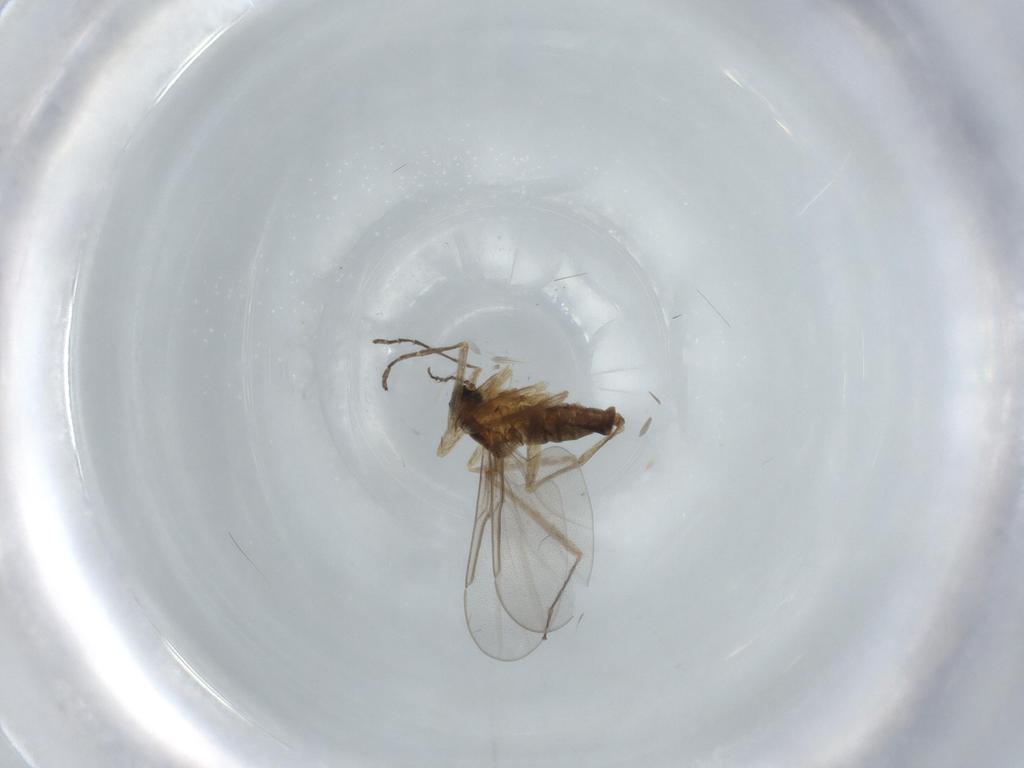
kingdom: Animalia
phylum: Arthropoda
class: Insecta
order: Diptera
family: Cecidomyiidae
